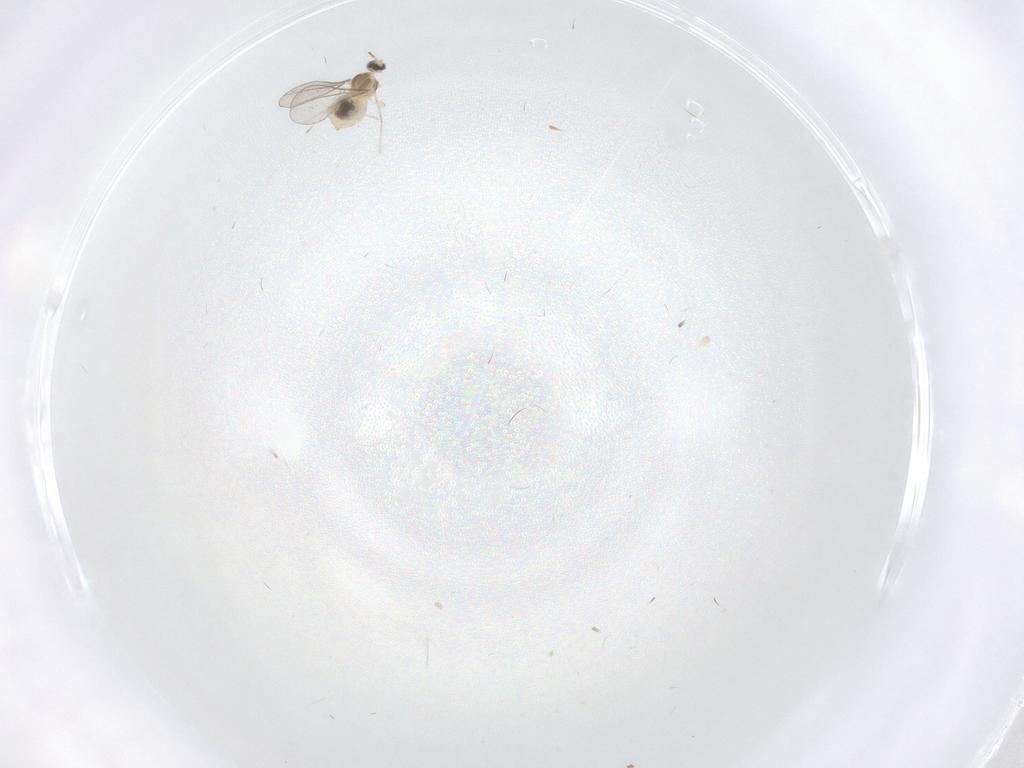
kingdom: Animalia
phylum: Arthropoda
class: Insecta
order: Diptera
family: Cecidomyiidae
